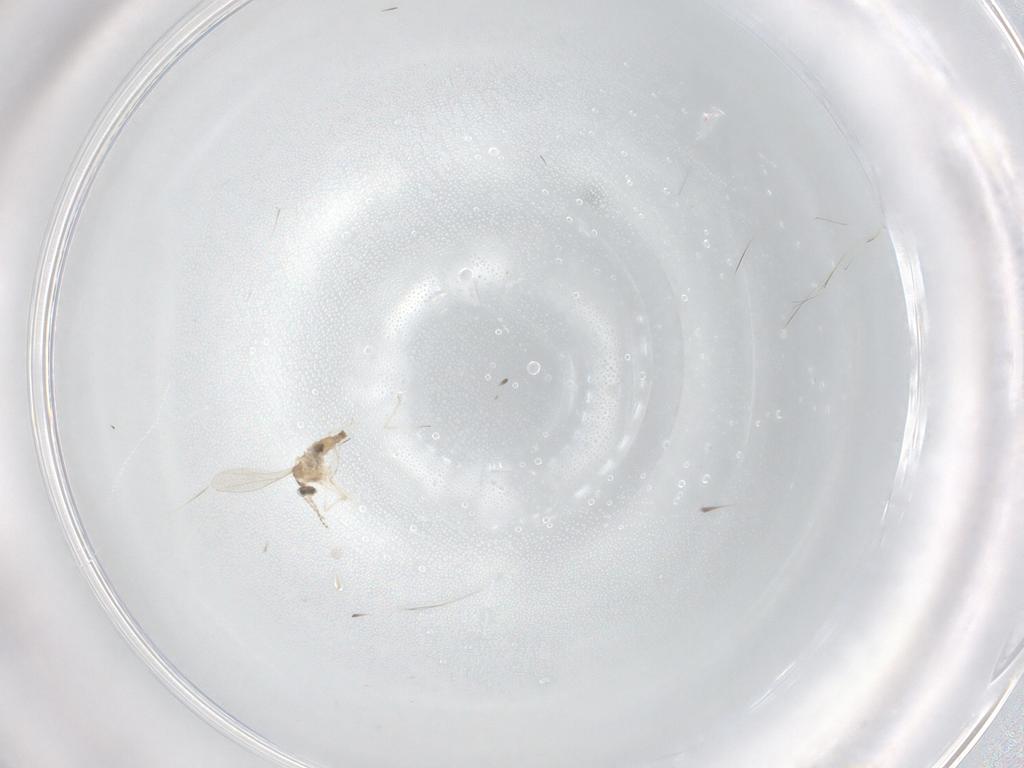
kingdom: Animalia
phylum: Arthropoda
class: Insecta
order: Diptera
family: Cecidomyiidae
